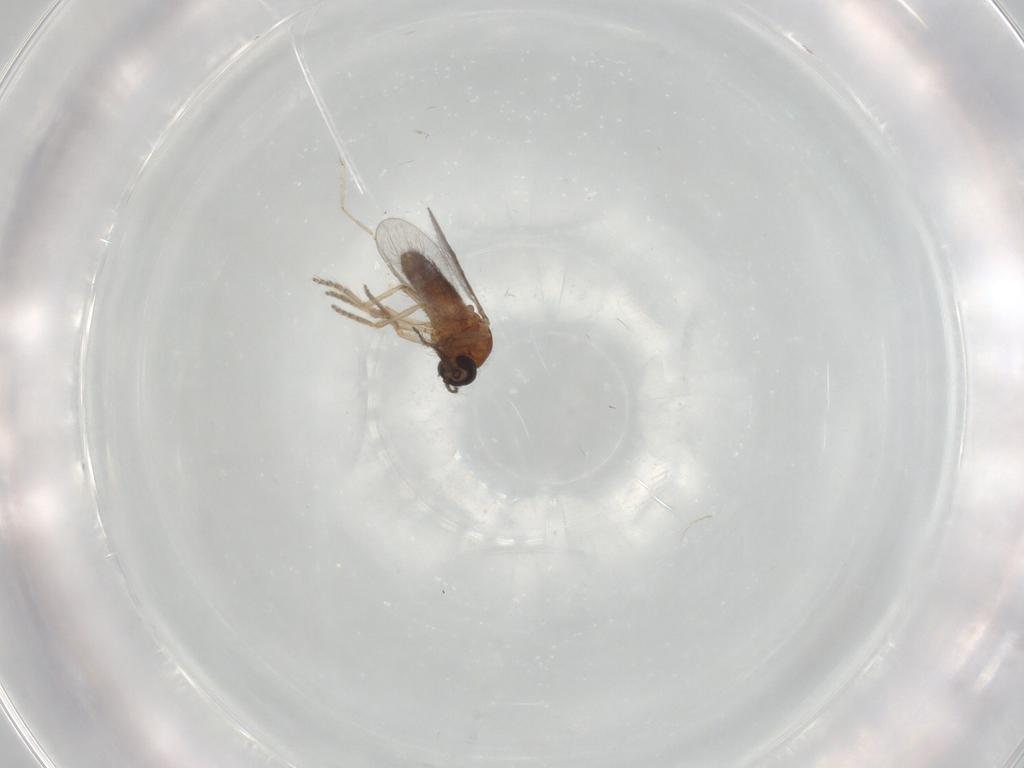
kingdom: Animalia
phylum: Arthropoda
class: Insecta
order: Diptera
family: Ceratopogonidae
